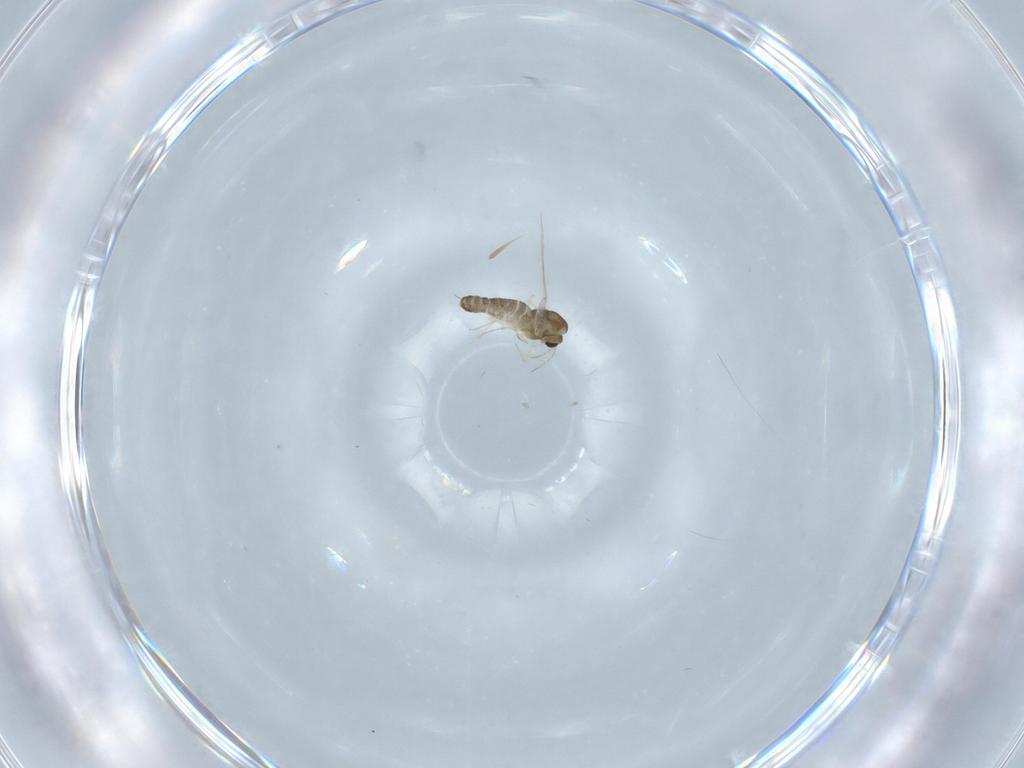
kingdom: Animalia
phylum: Arthropoda
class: Insecta
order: Diptera
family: Chironomidae
